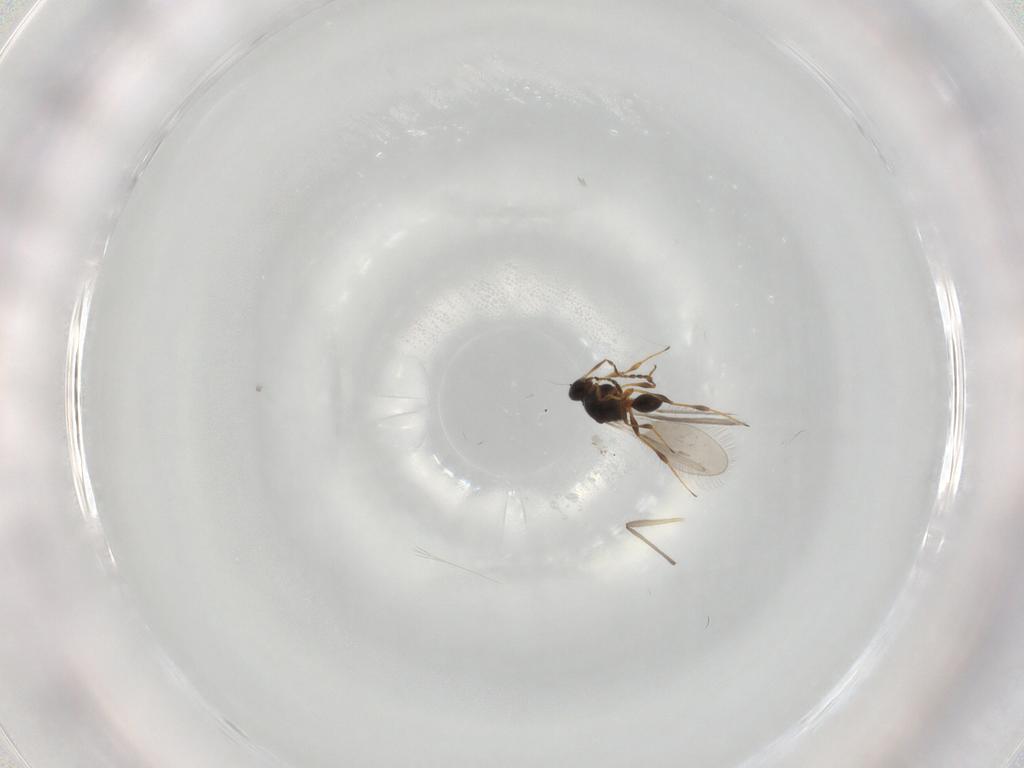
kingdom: Animalia
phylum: Arthropoda
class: Insecta
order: Hymenoptera
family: Platygastridae
